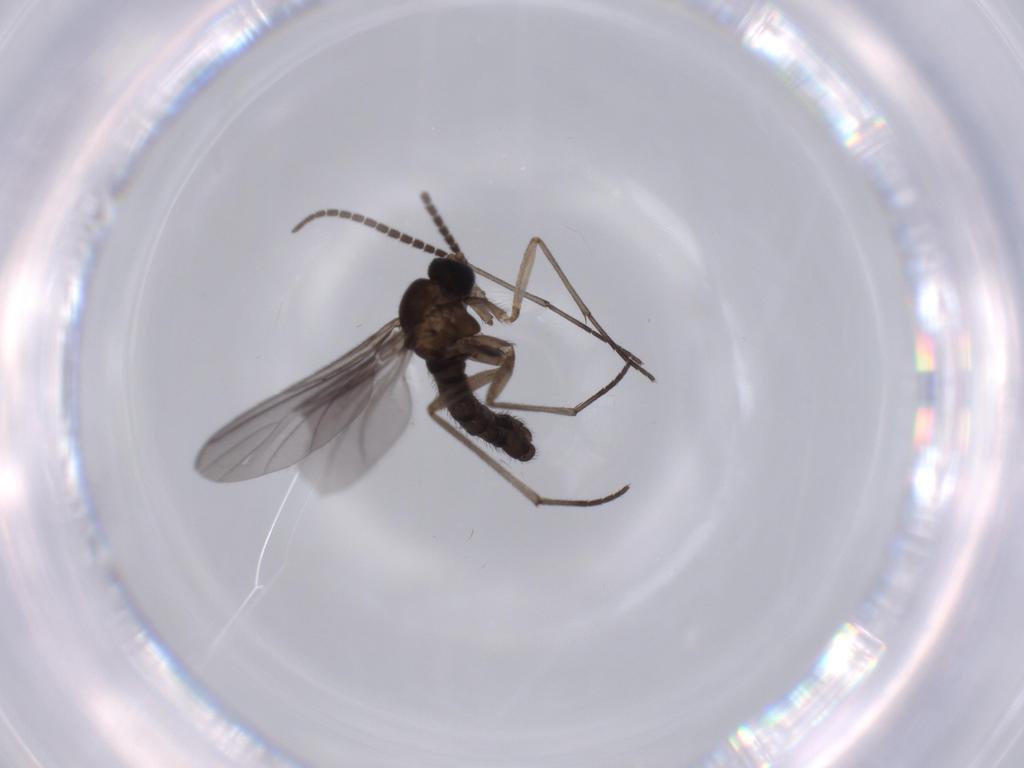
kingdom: Animalia
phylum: Arthropoda
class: Insecta
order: Diptera
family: Sciaridae
